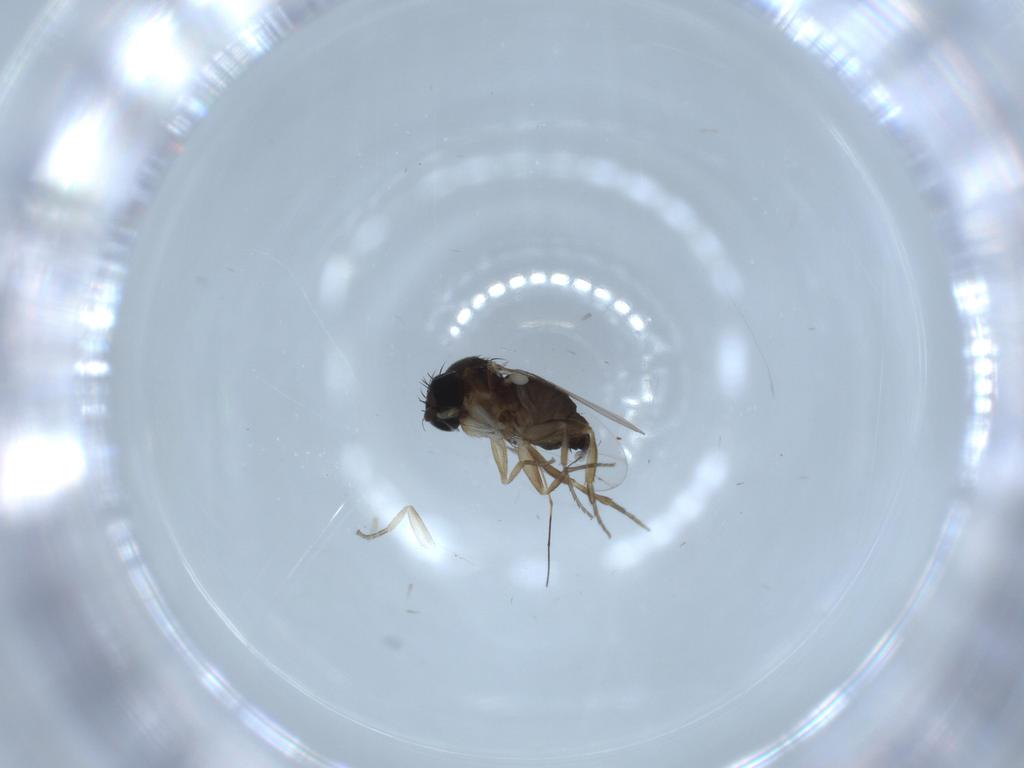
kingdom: Animalia
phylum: Arthropoda
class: Insecta
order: Diptera
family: Phoridae
